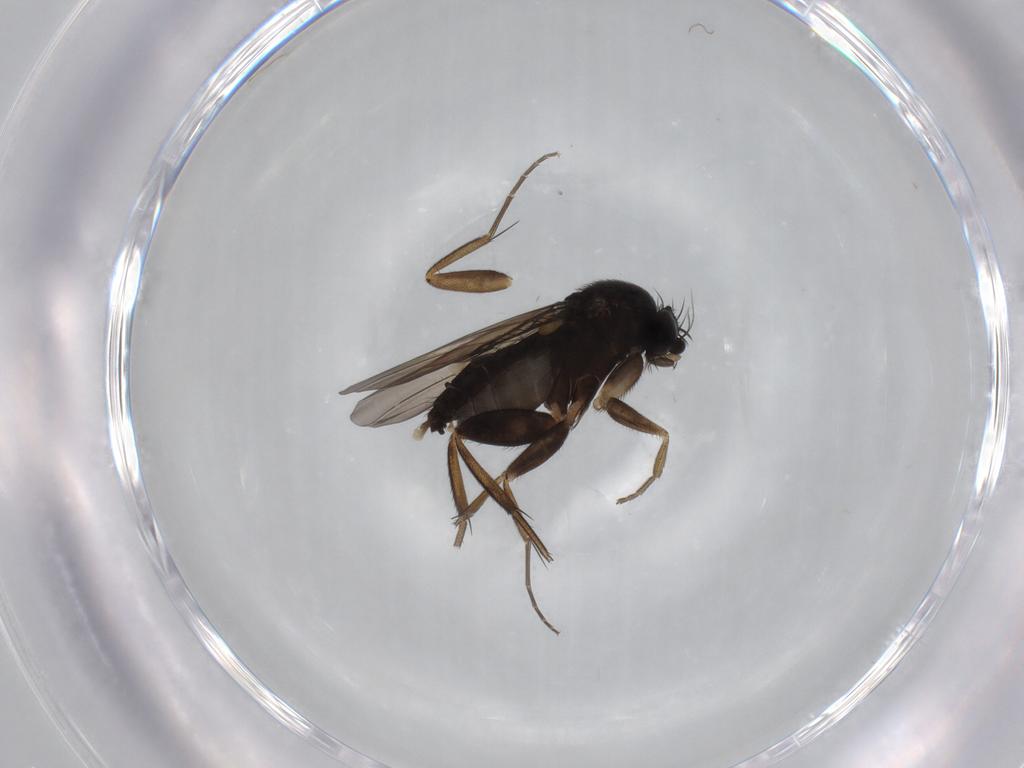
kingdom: Animalia
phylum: Arthropoda
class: Insecta
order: Diptera
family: Phoridae
